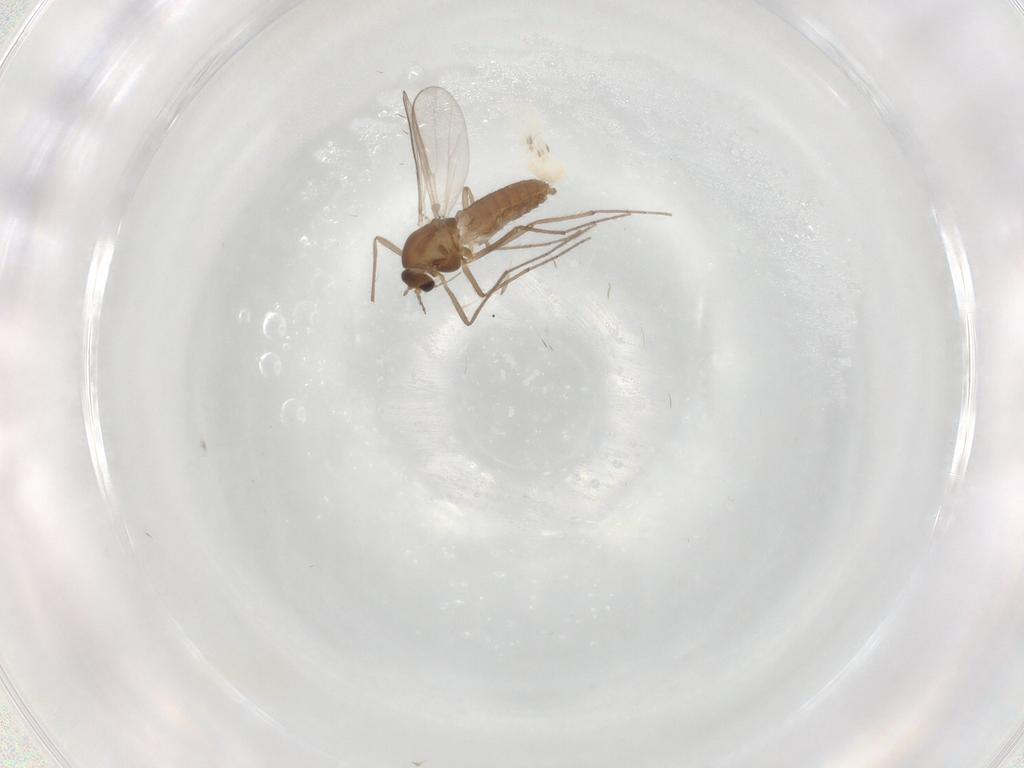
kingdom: Animalia
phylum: Arthropoda
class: Insecta
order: Diptera
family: Chironomidae
